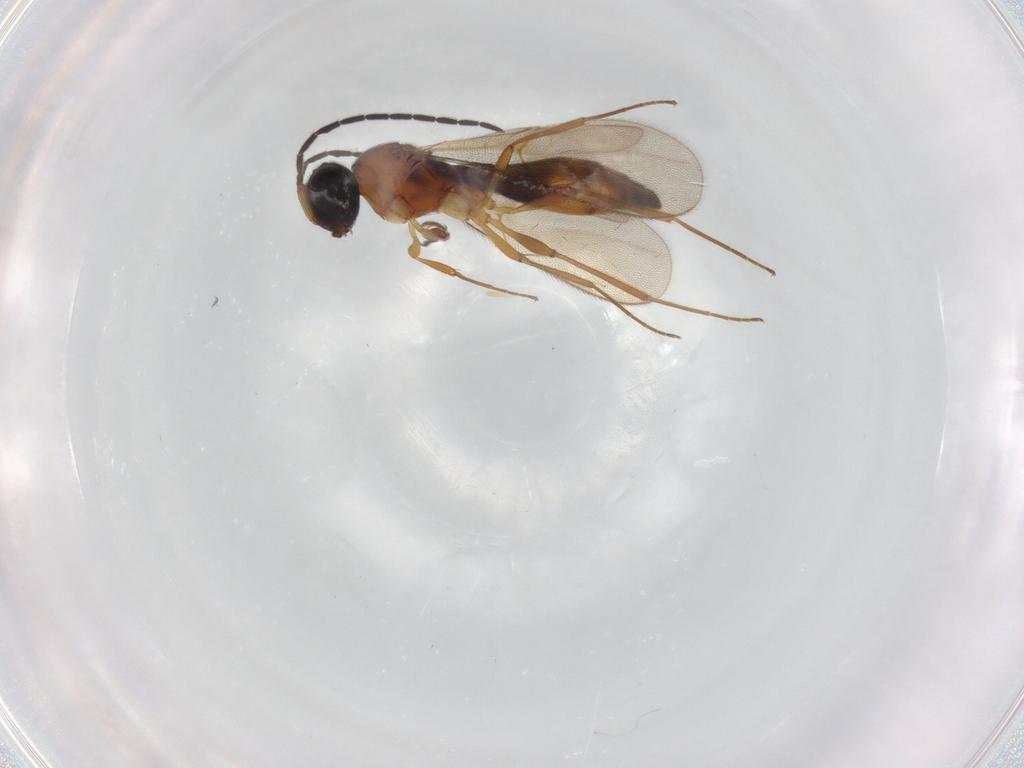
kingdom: Animalia
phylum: Arthropoda
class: Insecta
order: Hymenoptera
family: Scelionidae
